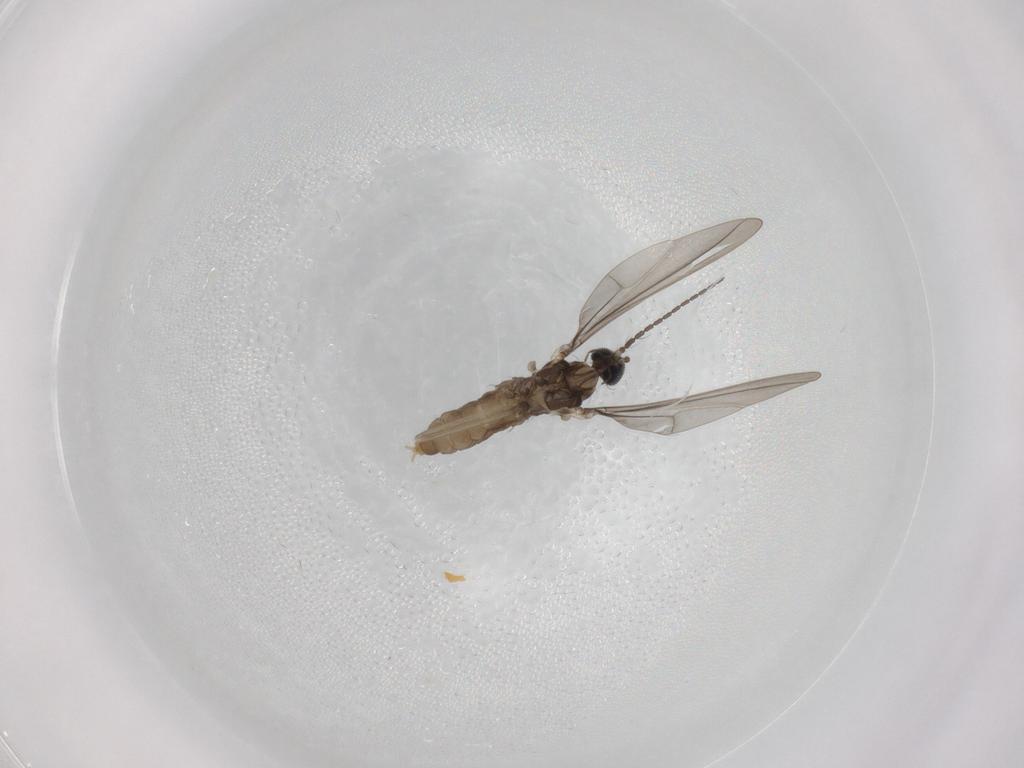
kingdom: Animalia
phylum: Arthropoda
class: Insecta
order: Diptera
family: Cecidomyiidae
